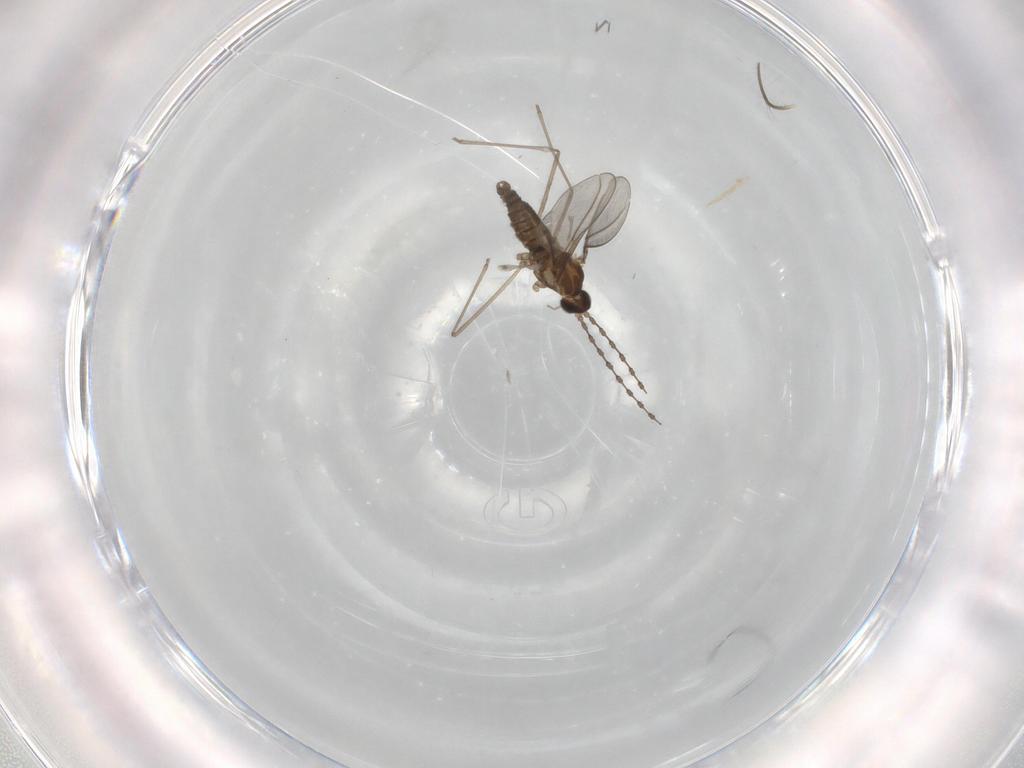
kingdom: Animalia
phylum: Arthropoda
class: Insecta
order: Diptera
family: Cecidomyiidae
